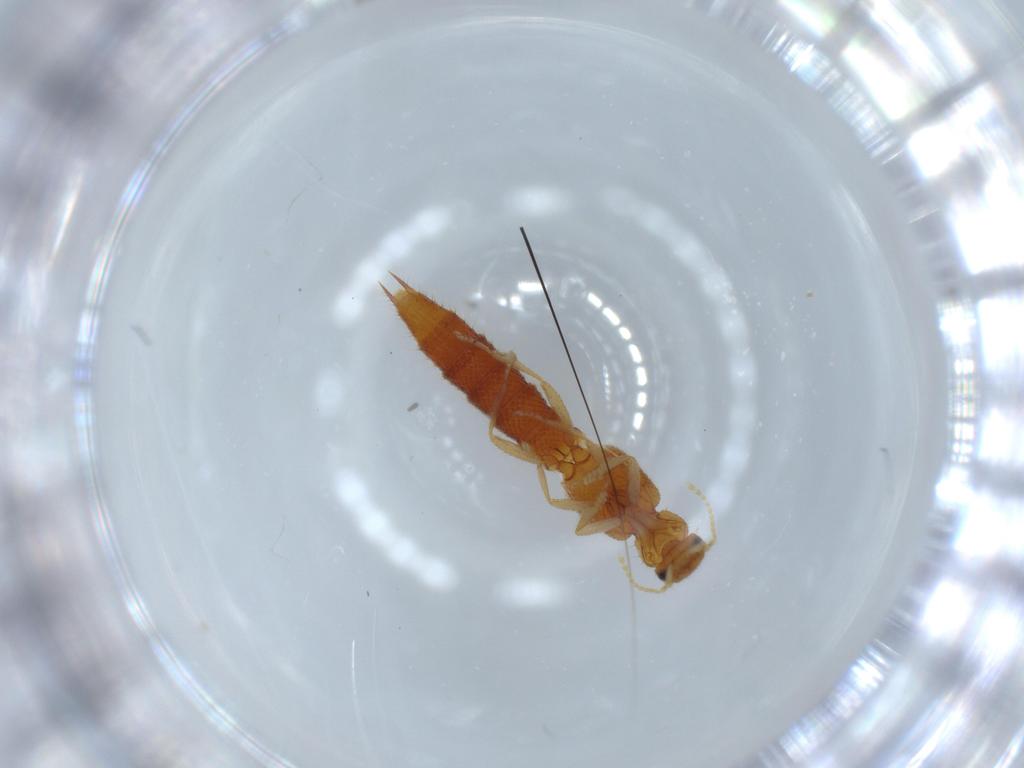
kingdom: Animalia
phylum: Arthropoda
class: Insecta
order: Coleoptera
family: Staphylinidae
